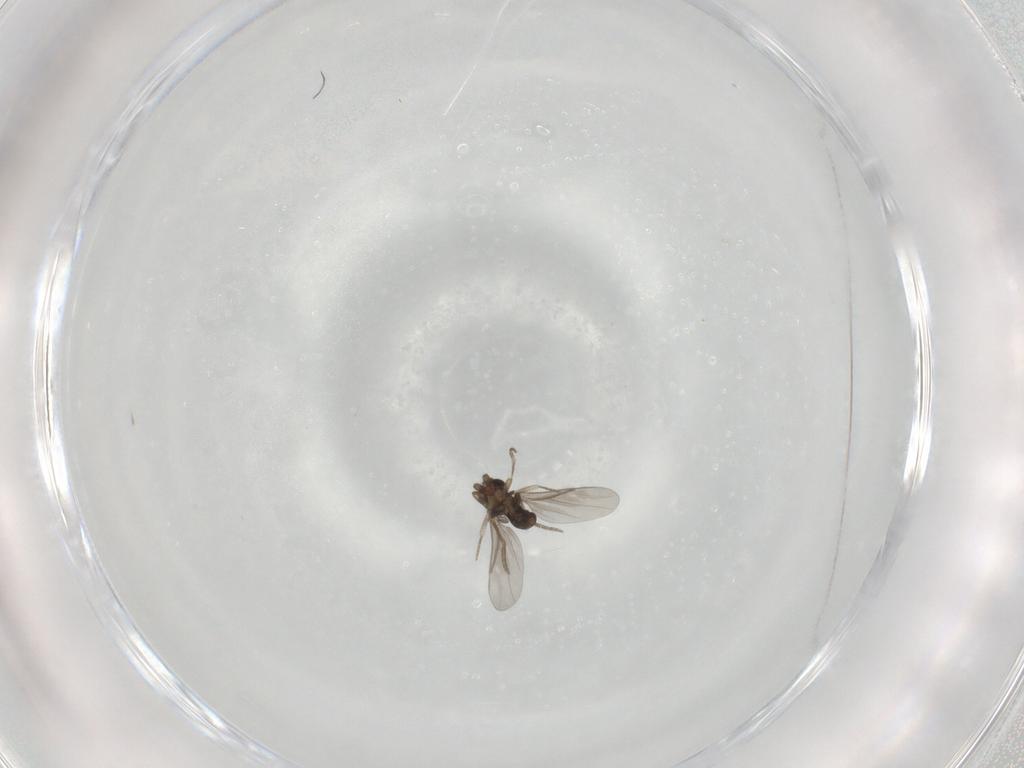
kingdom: Animalia
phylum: Arthropoda
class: Insecta
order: Diptera
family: Limoniidae
